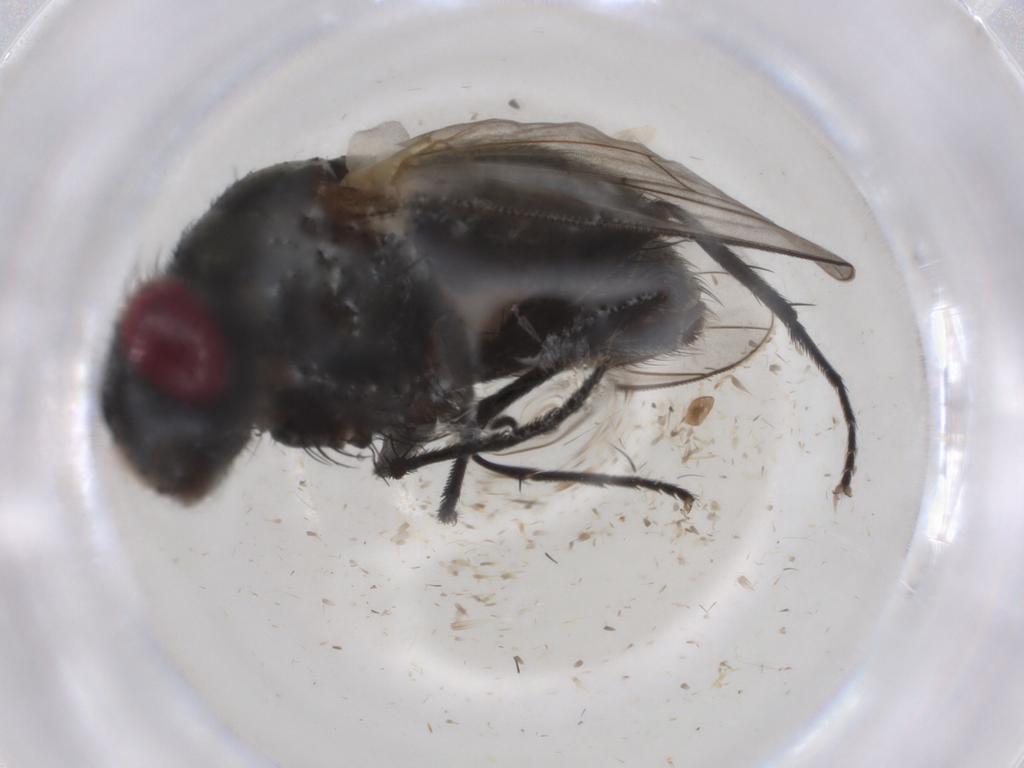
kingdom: Animalia
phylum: Arthropoda
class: Insecta
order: Diptera
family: Muscidae
